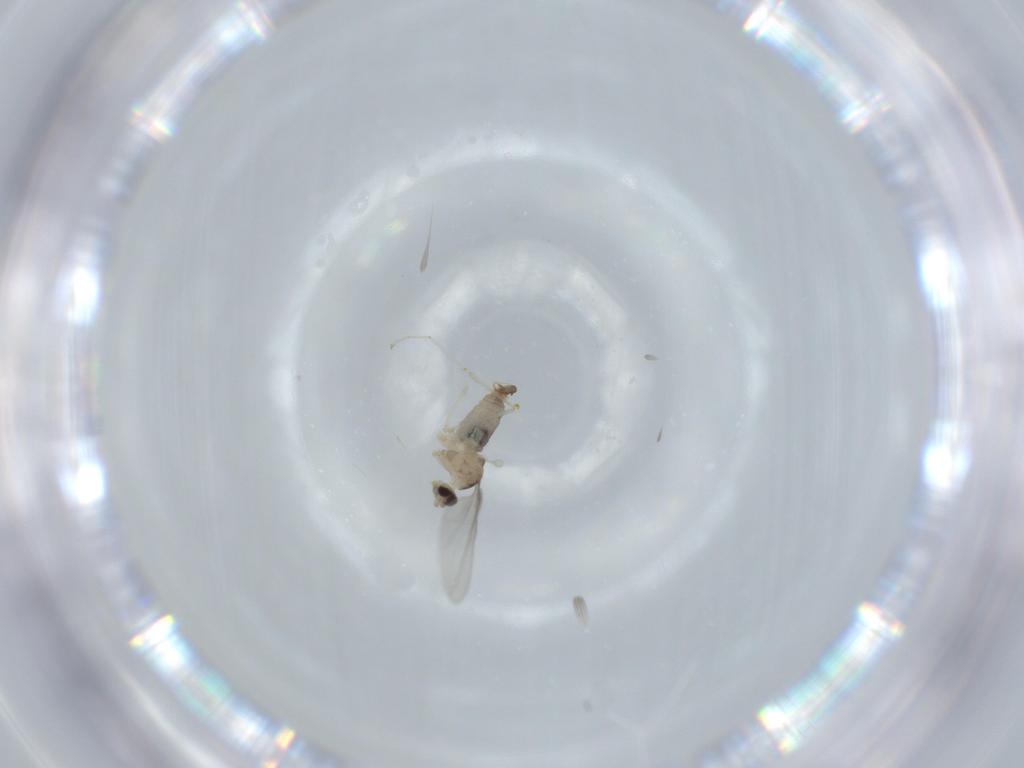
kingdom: Animalia
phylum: Arthropoda
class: Insecta
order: Diptera
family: Cecidomyiidae
